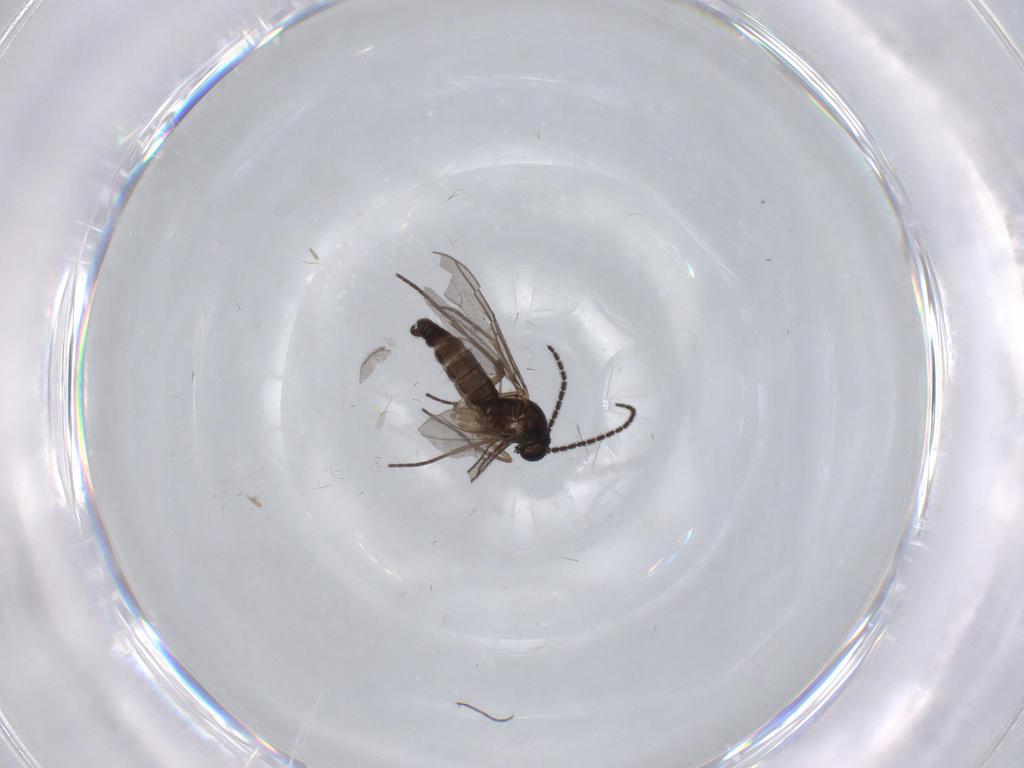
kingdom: Animalia
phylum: Arthropoda
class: Insecta
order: Diptera
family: Sciaridae
